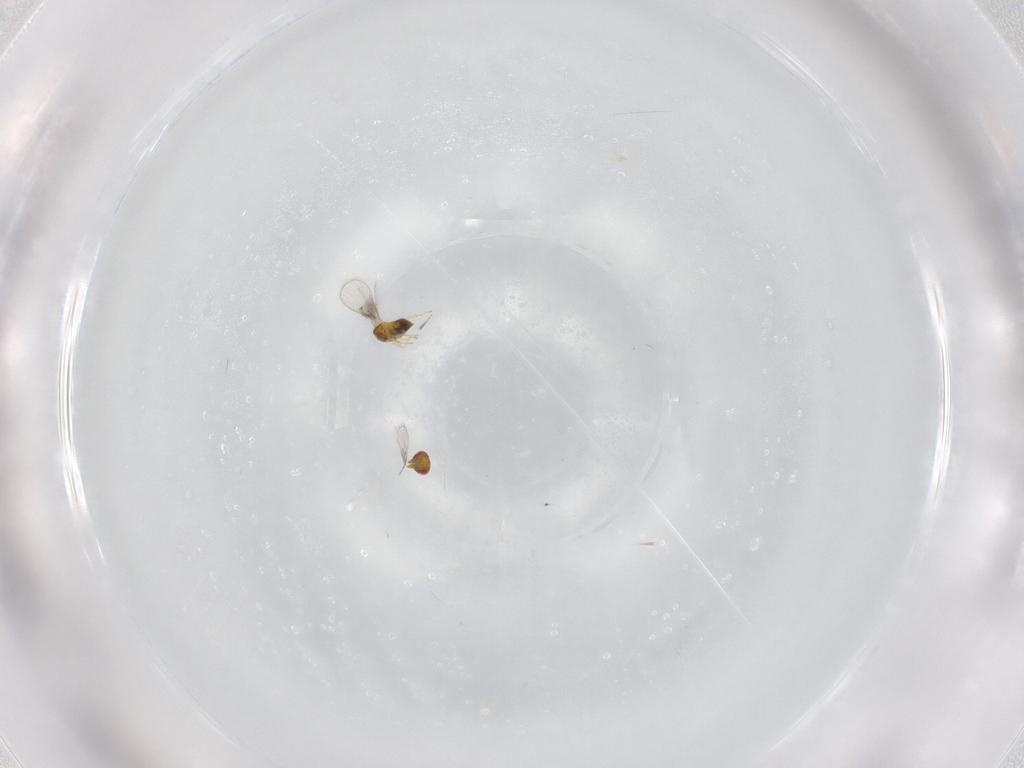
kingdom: Animalia
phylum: Arthropoda
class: Insecta
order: Hymenoptera
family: Trichogrammatidae
